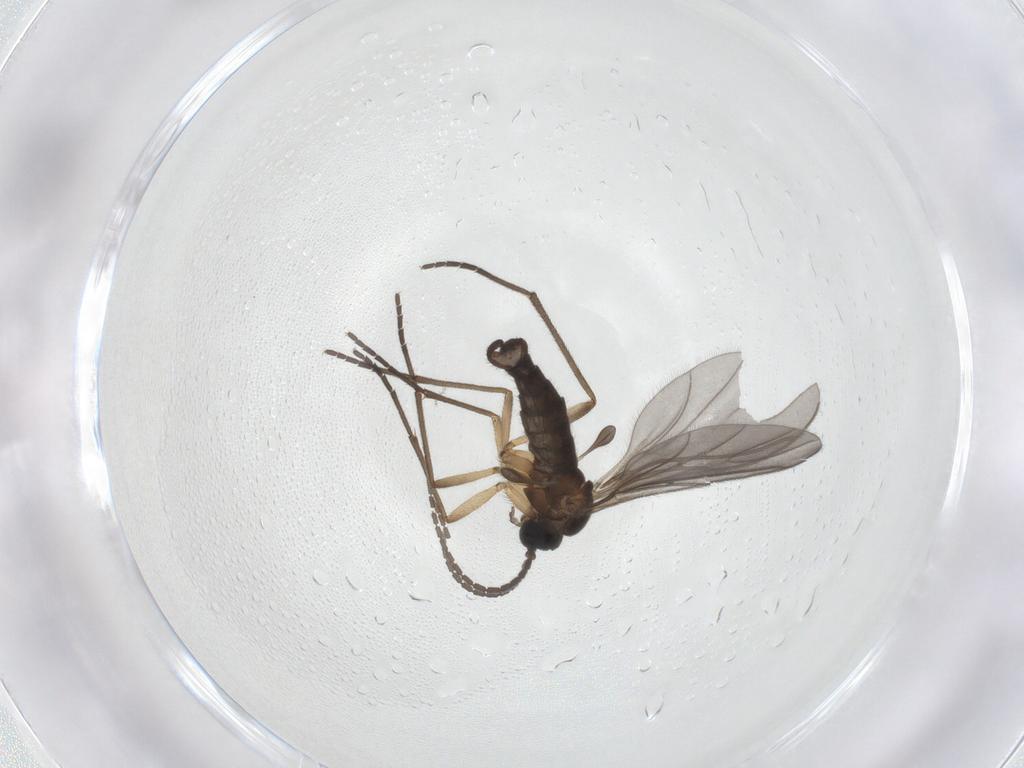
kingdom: Animalia
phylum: Arthropoda
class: Insecta
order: Diptera
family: Sciaridae
